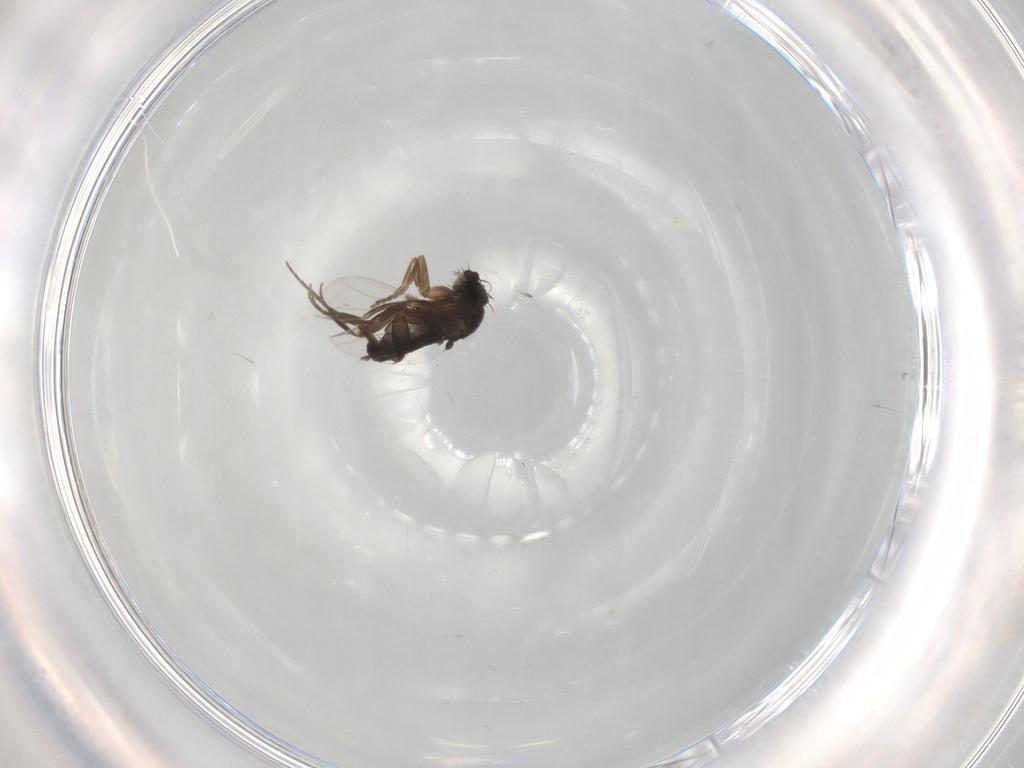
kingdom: Animalia
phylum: Arthropoda
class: Insecta
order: Diptera
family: Phoridae
